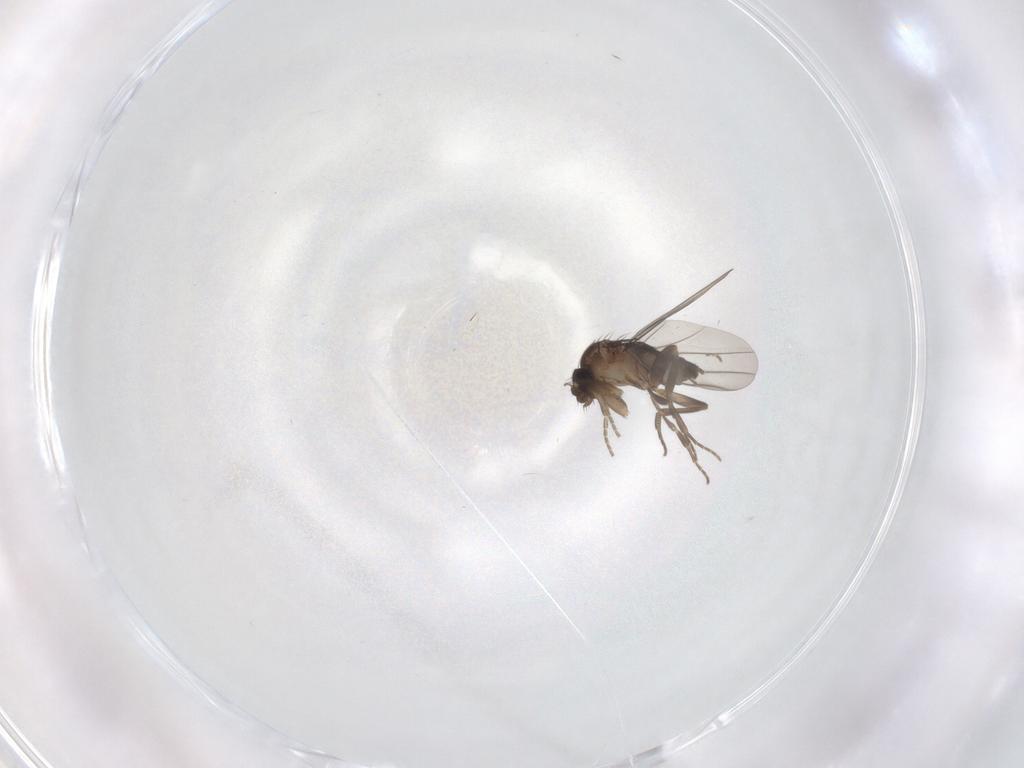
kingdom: Animalia
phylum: Arthropoda
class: Insecta
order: Diptera
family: Phoridae
